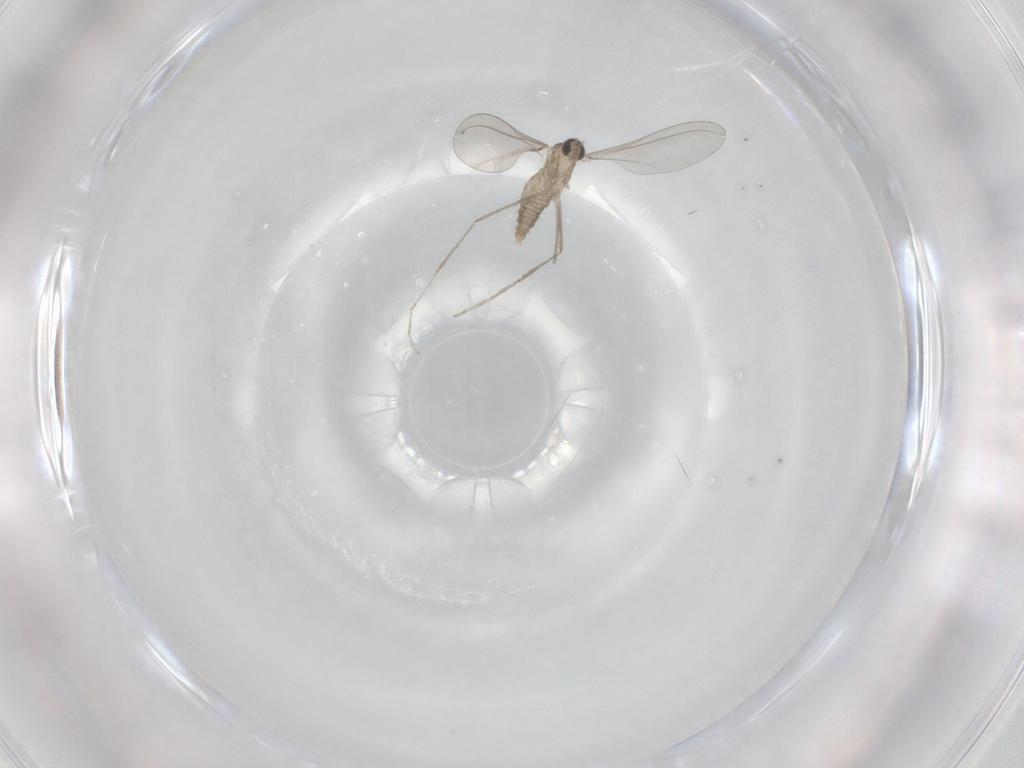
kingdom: Animalia
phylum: Arthropoda
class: Insecta
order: Diptera
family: Cecidomyiidae
